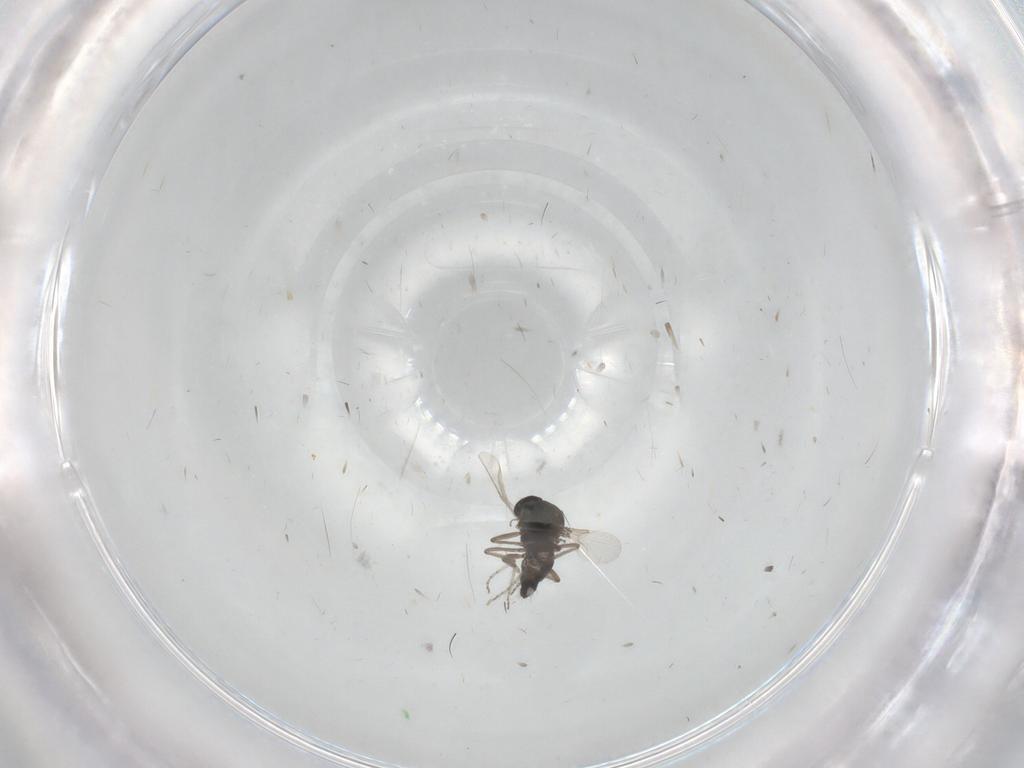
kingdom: Animalia
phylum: Arthropoda
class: Insecta
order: Diptera
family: Ceratopogonidae
